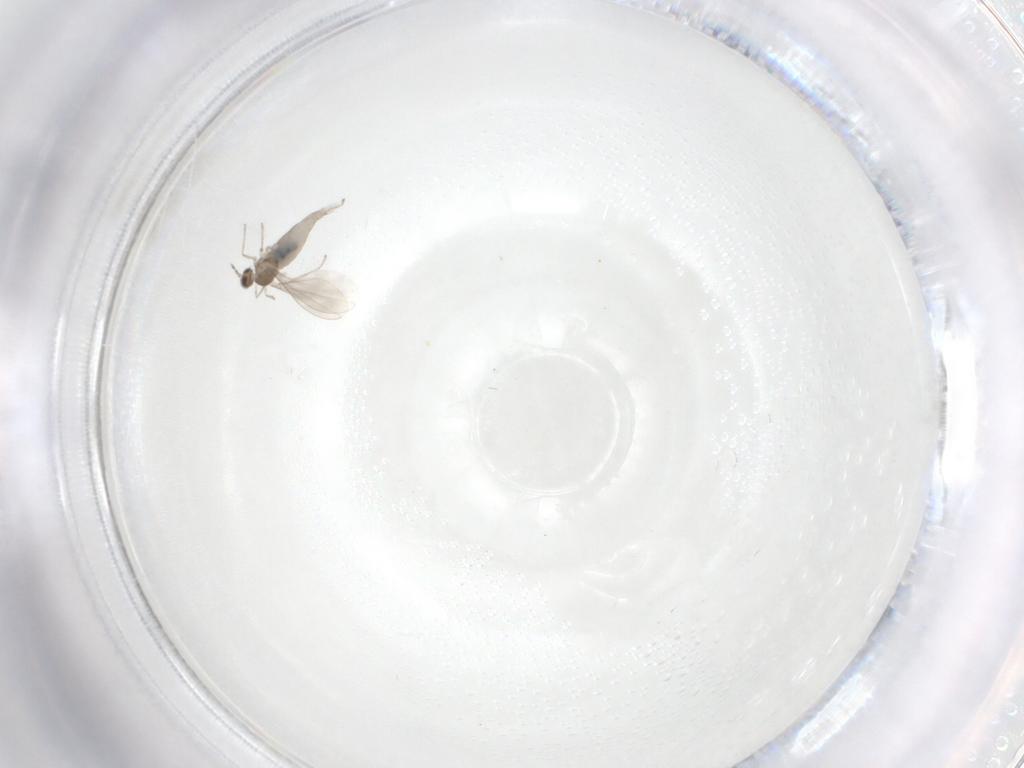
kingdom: Animalia
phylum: Arthropoda
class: Insecta
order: Diptera
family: Cecidomyiidae
